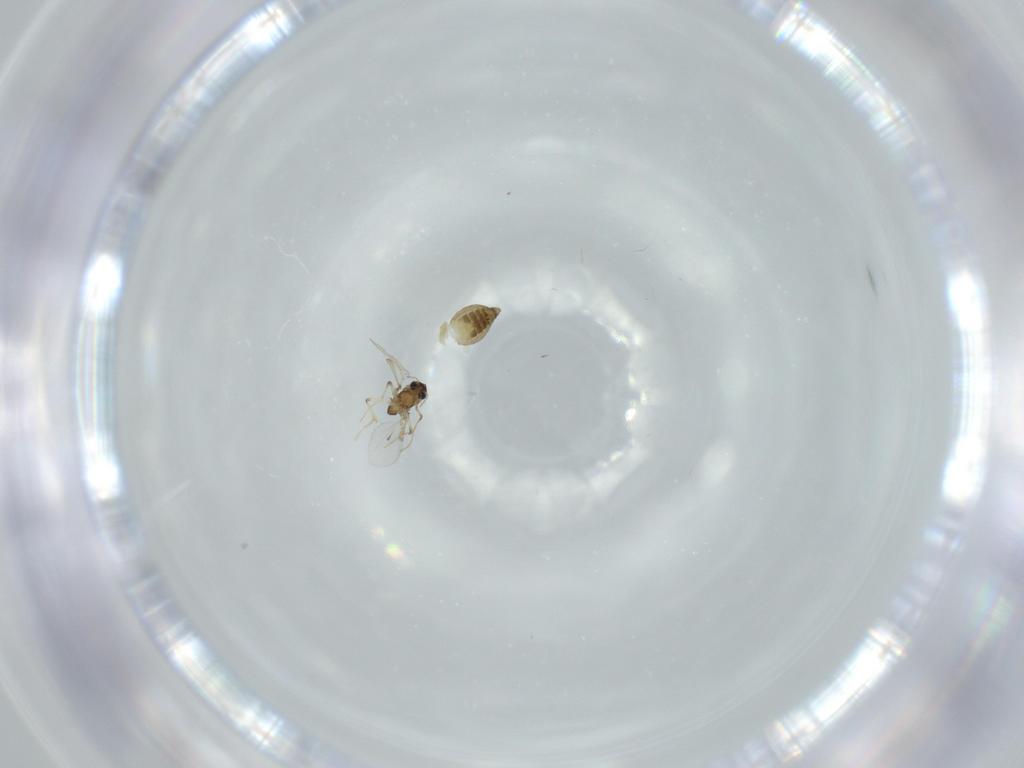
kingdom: Animalia
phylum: Arthropoda
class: Insecta
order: Diptera
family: Chironomidae
